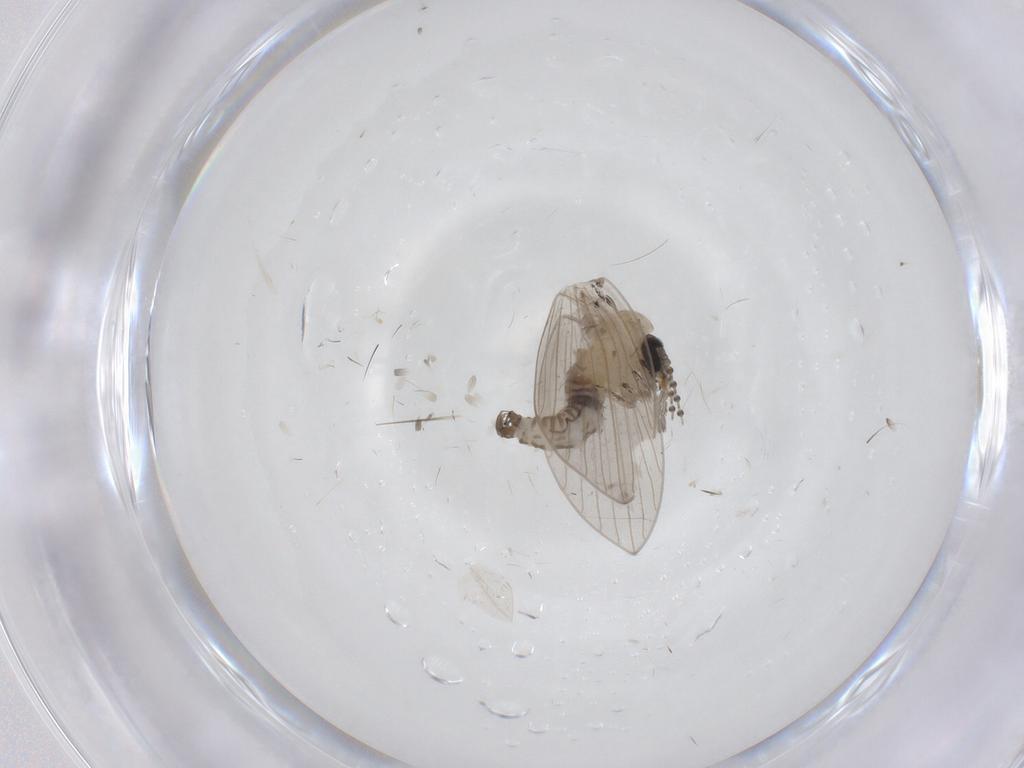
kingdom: Animalia
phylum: Arthropoda
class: Insecta
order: Diptera
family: Psychodidae
